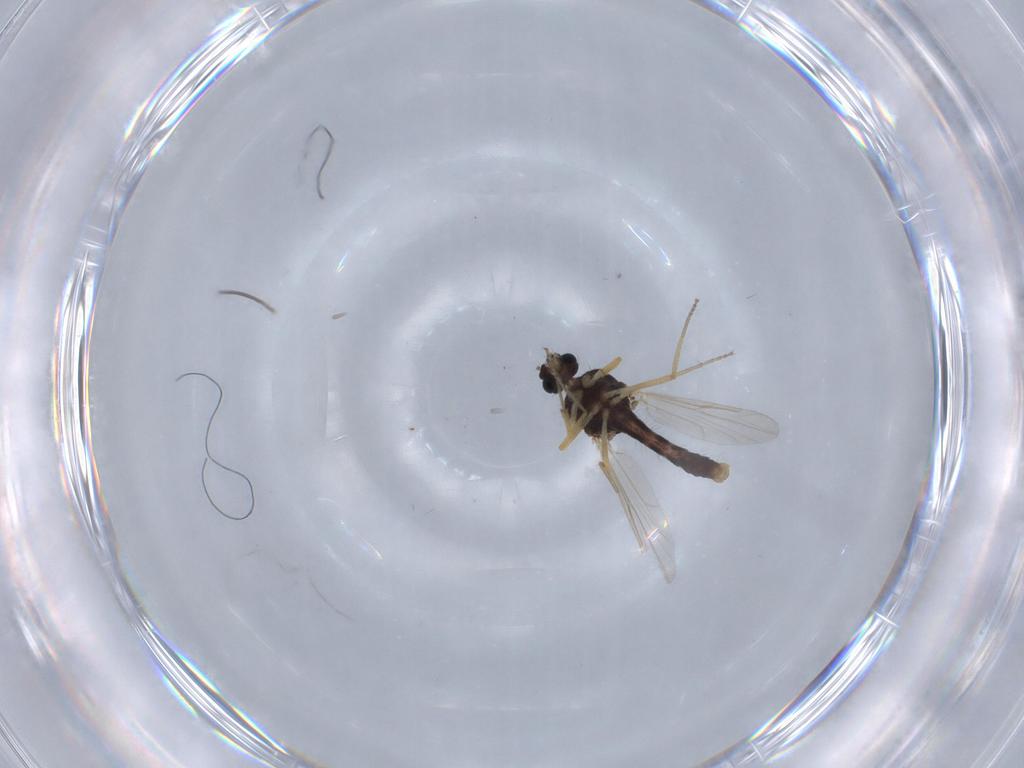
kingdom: Animalia
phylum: Arthropoda
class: Insecta
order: Diptera
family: Ceratopogonidae
